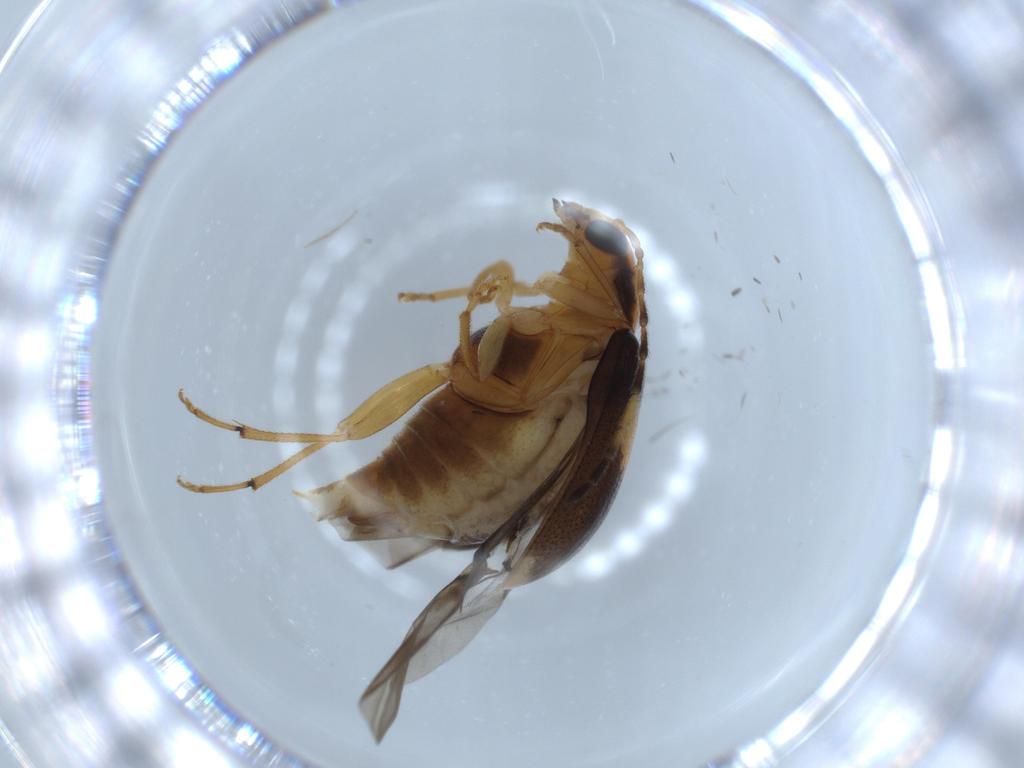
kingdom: Animalia
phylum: Arthropoda
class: Insecta
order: Coleoptera
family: Chrysomelidae
